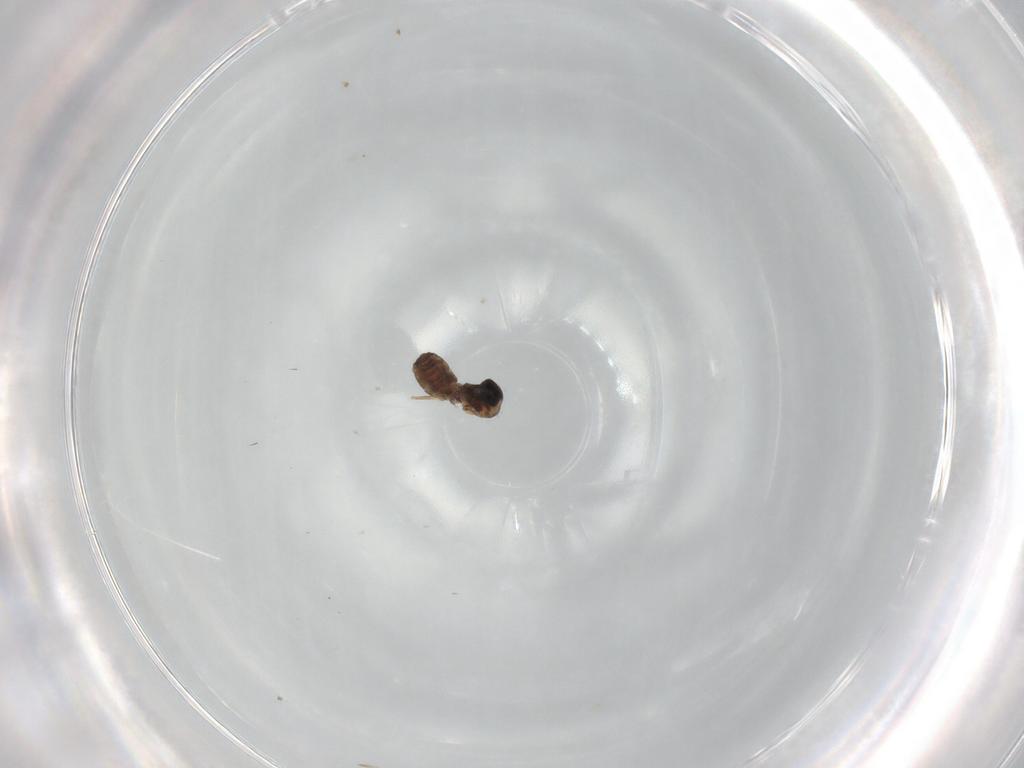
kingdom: Animalia
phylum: Arthropoda
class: Insecta
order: Diptera
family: Ceratopogonidae
